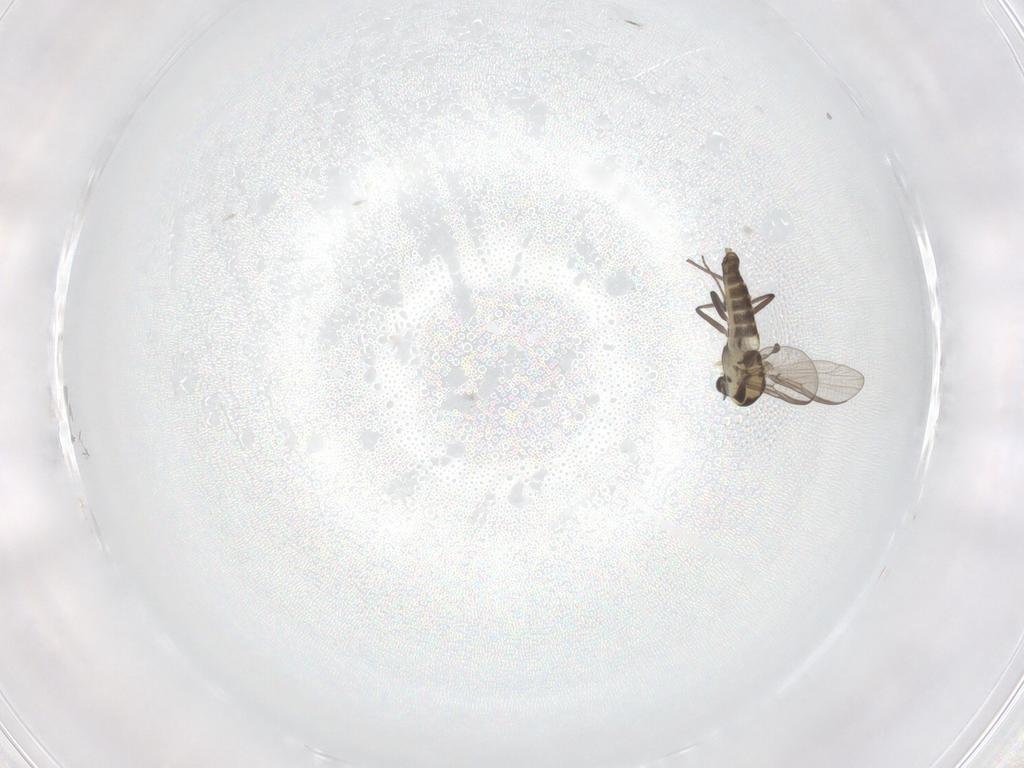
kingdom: Animalia
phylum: Arthropoda
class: Insecta
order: Diptera
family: Chironomidae
